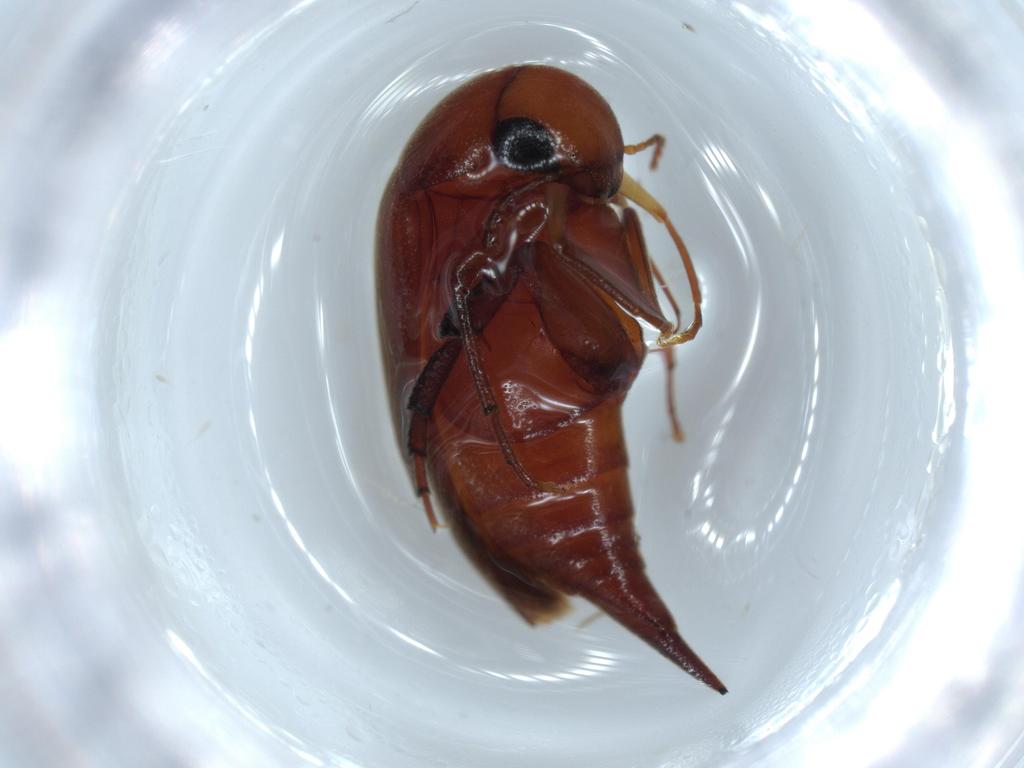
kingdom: Animalia
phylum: Arthropoda
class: Insecta
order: Coleoptera
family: Mordellidae
